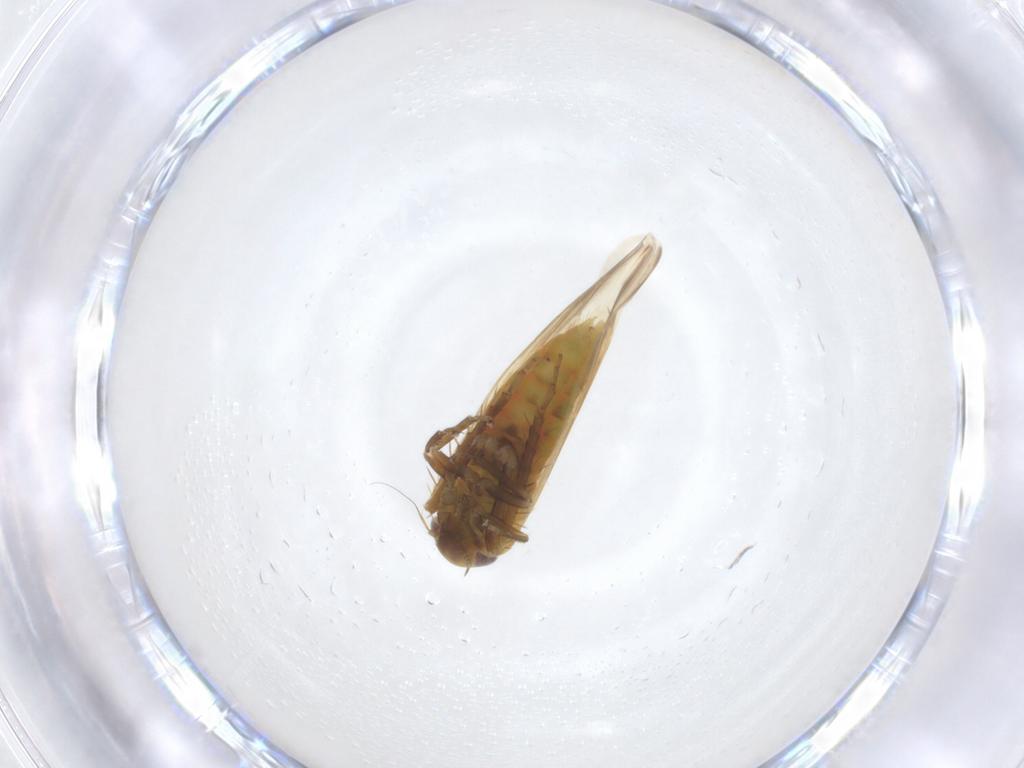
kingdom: Animalia
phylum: Arthropoda
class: Insecta
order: Hemiptera
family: Cicadellidae
